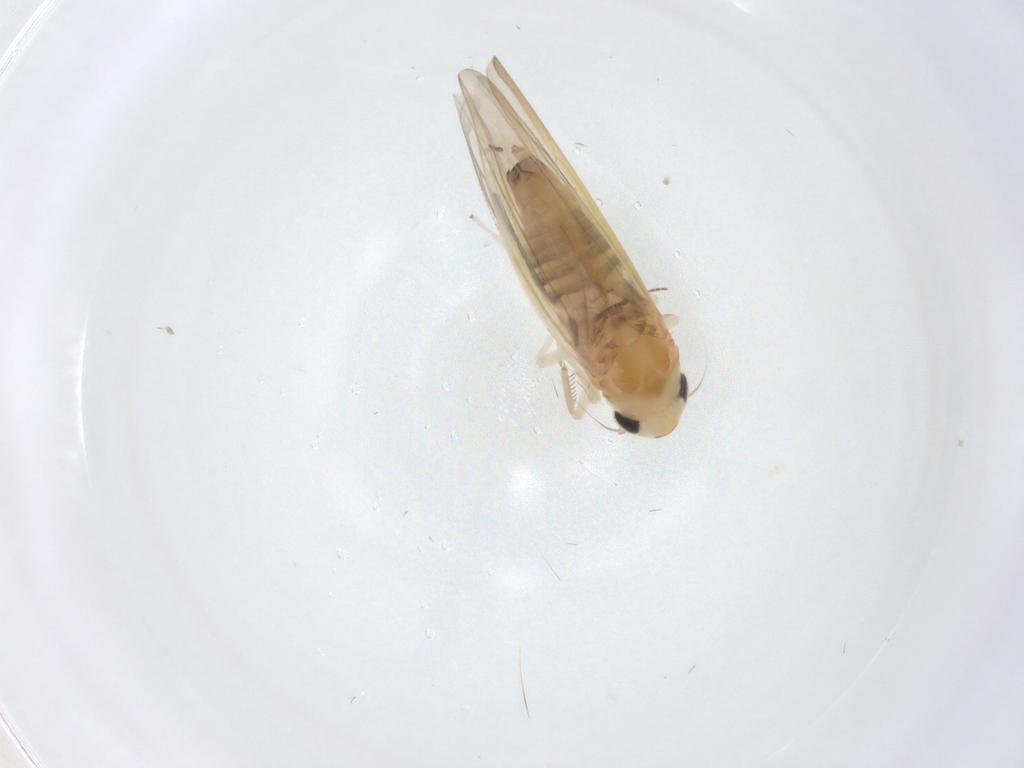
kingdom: Animalia
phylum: Arthropoda
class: Insecta
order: Hemiptera
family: Cicadellidae
